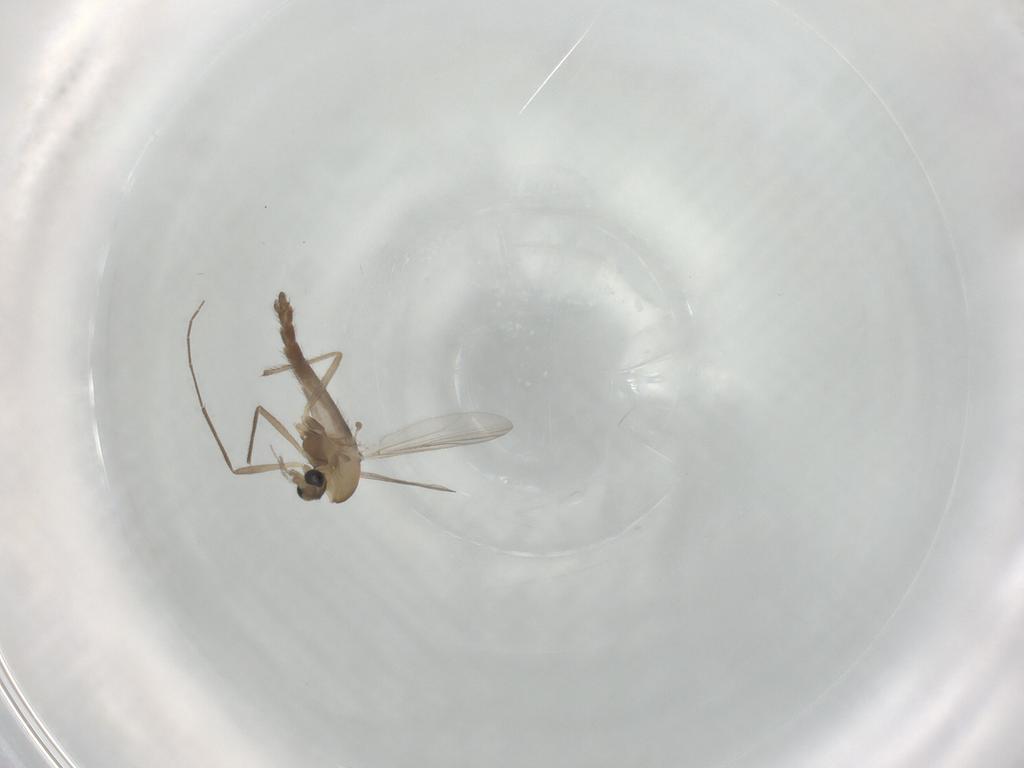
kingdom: Animalia
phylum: Arthropoda
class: Insecta
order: Diptera
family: Chironomidae
